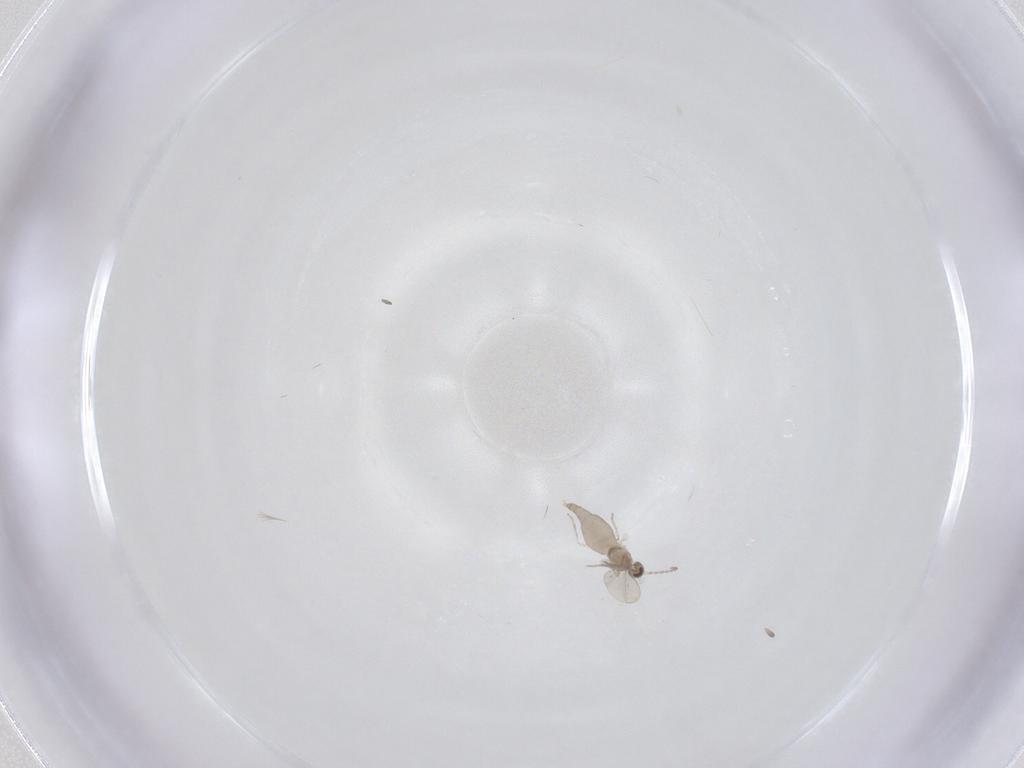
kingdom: Animalia
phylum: Arthropoda
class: Insecta
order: Diptera
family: Cecidomyiidae
